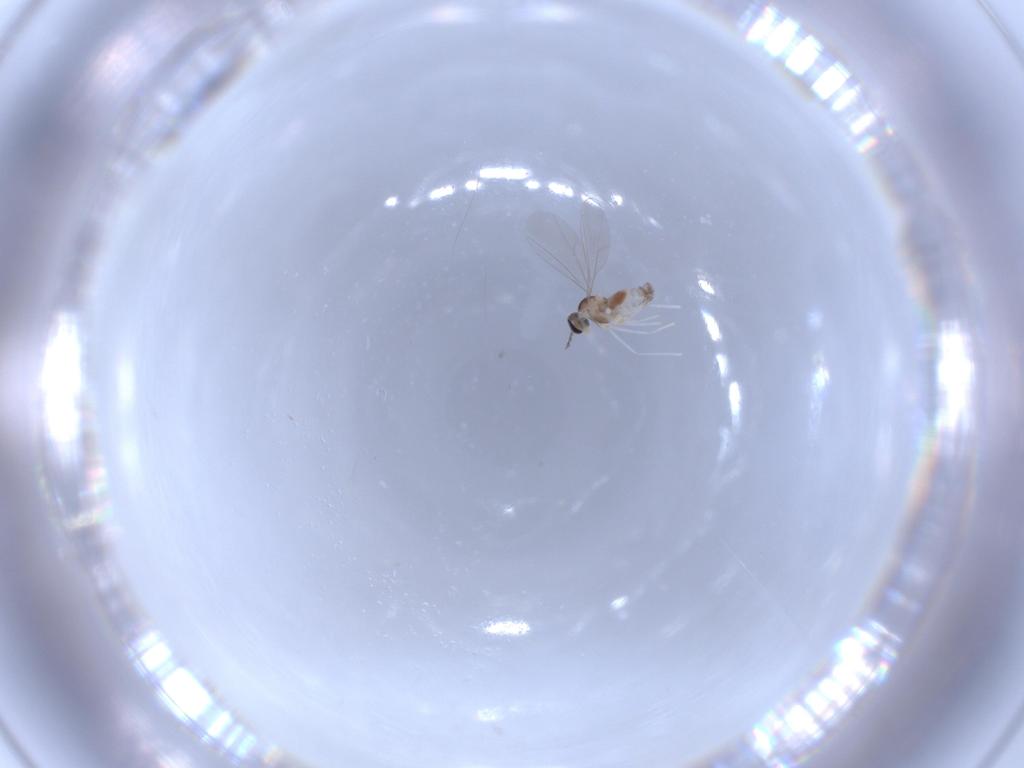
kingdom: Animalia
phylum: Arthropoda
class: Insecta
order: Diptera
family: Cecidomyiidae
